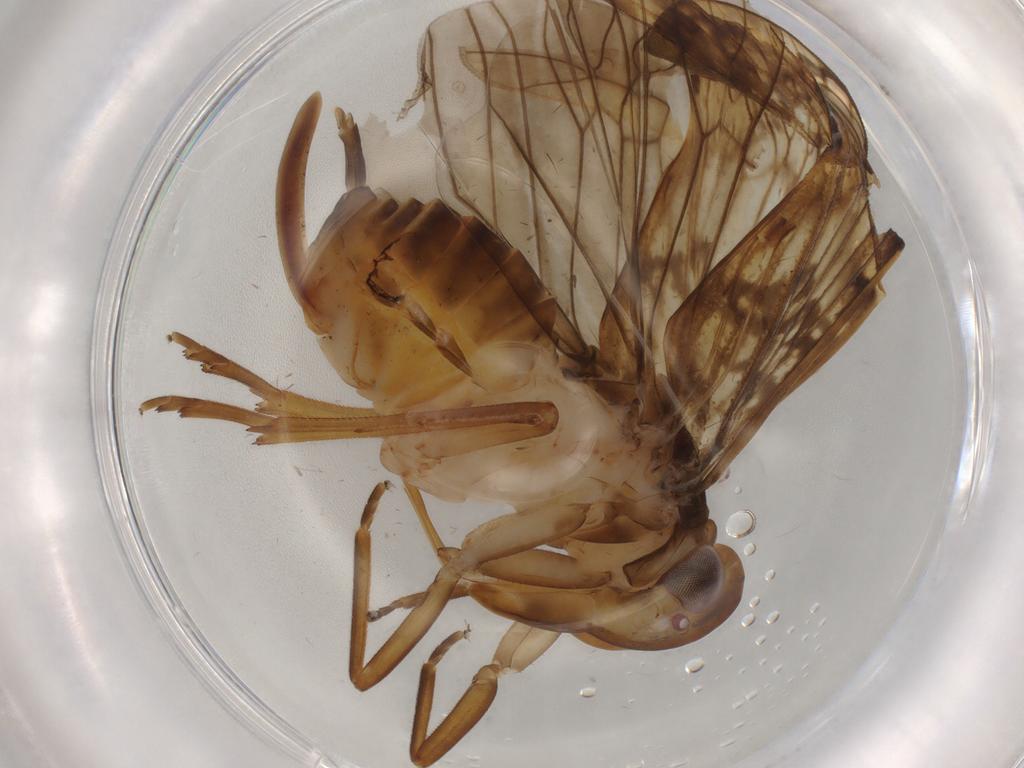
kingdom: Animalia
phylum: Arthropoda
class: Insecta
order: Hemiptera
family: Cixiidae
